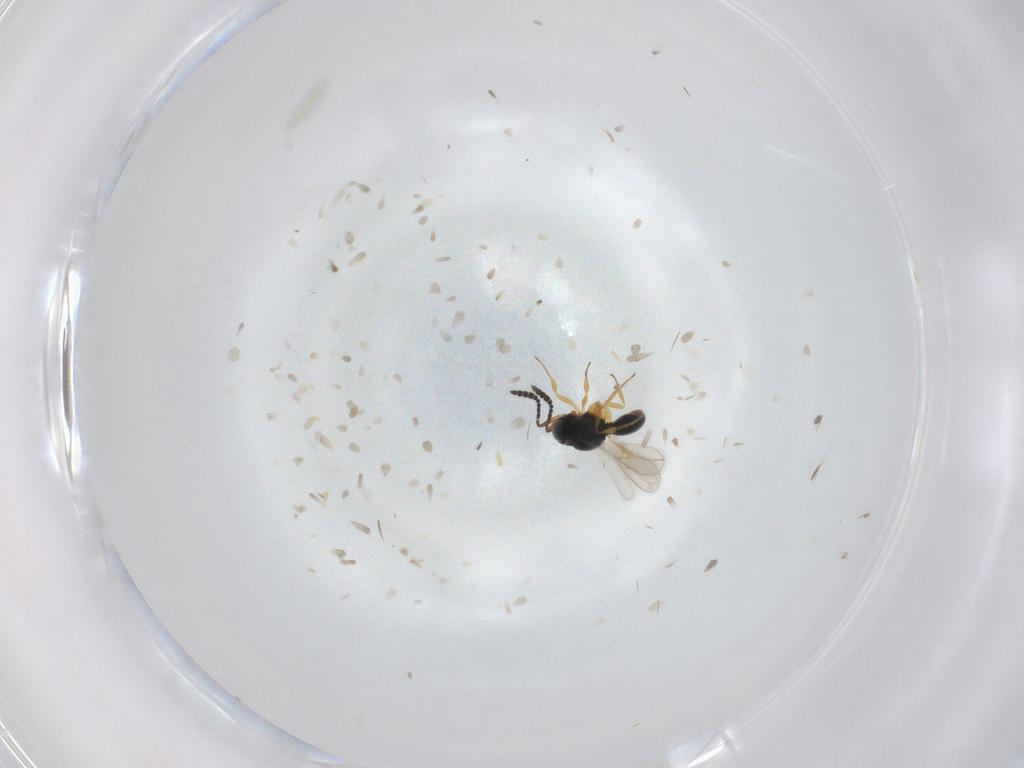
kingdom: Animalia
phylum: Arthropoda
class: Insecta
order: Hymenoptera
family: Scelionidae
